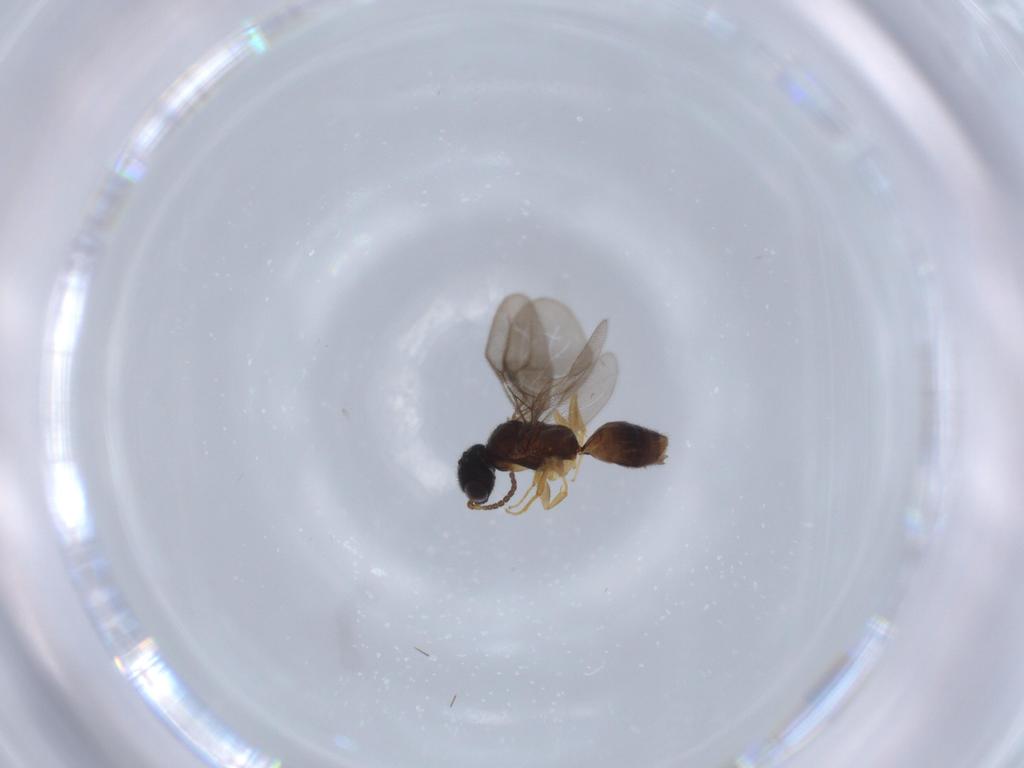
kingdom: Animalia
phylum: Arthropoda
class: Insecta
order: Hymenoptera
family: Bethylidae
